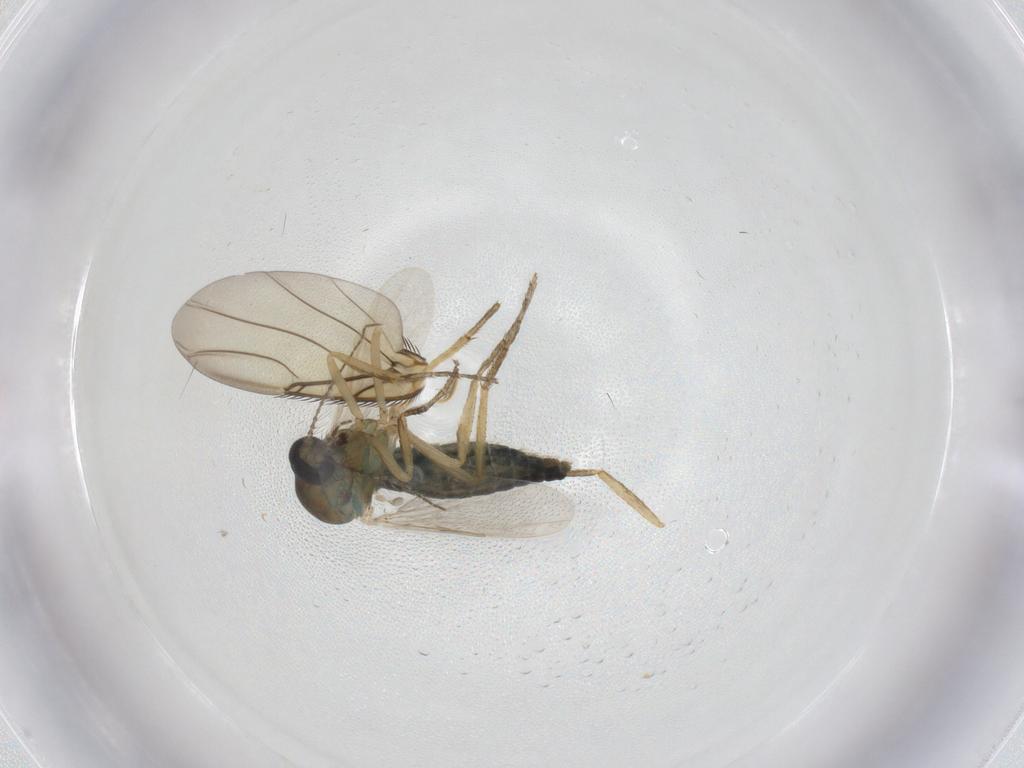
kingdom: Animalia
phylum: Arthropoda
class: Insecta
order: Diptera
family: Ceratopogonidae
